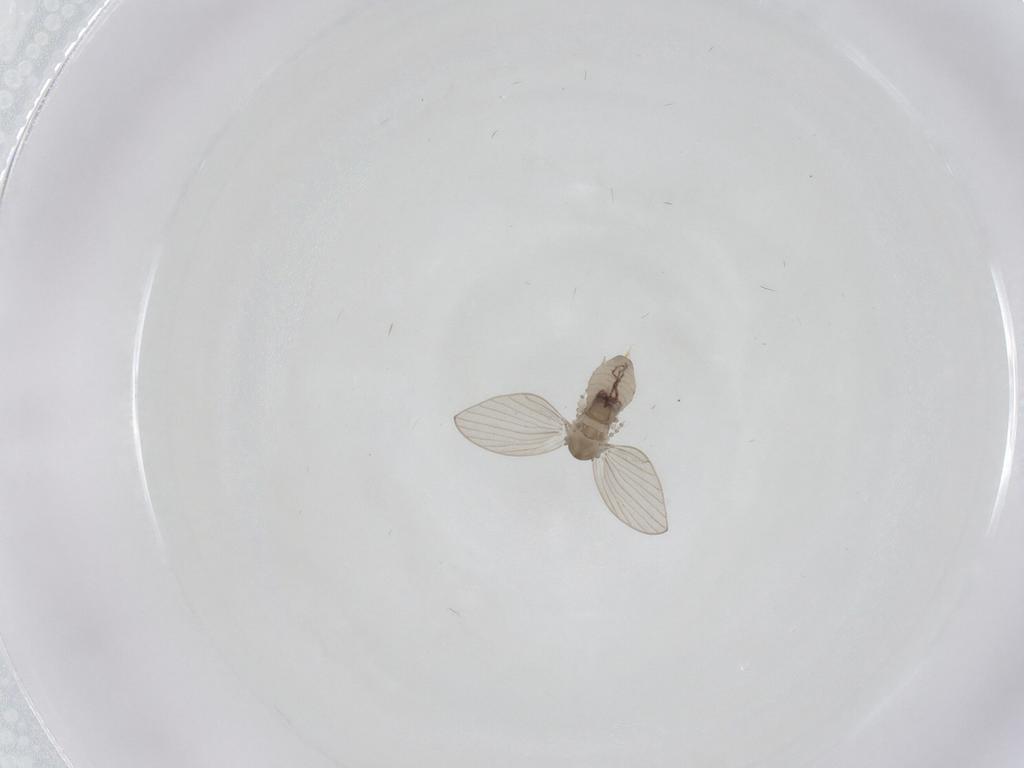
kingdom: Animalia
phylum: Arthropoda
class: Insecta
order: Diptera
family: Psychodidae
